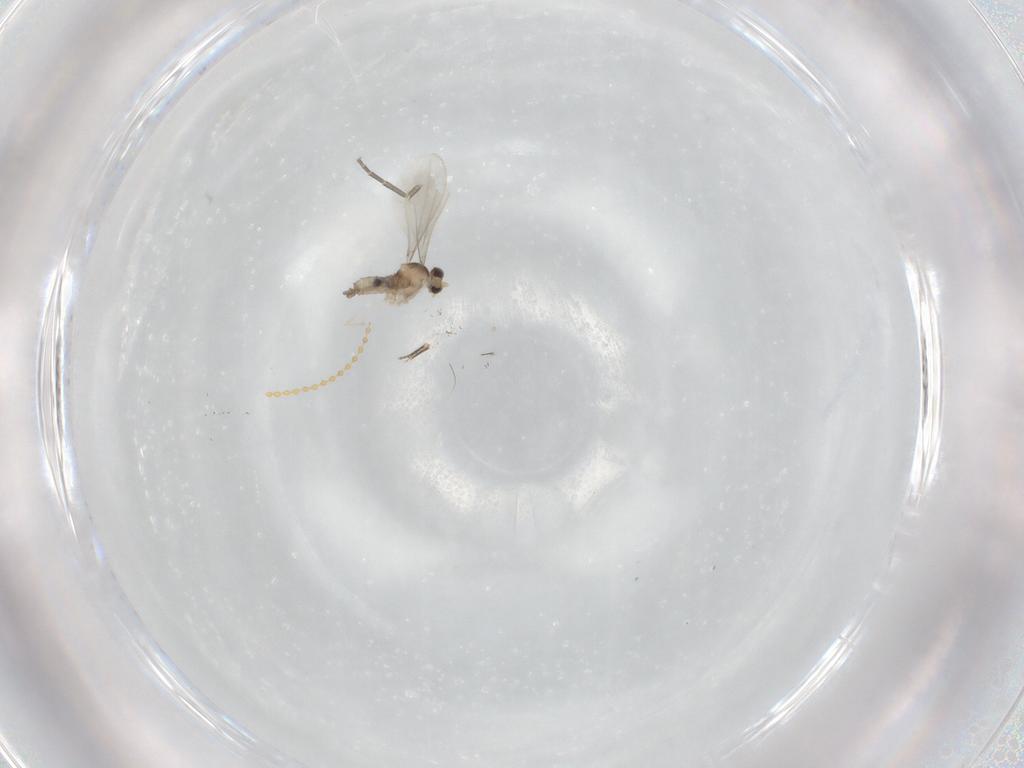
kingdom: Animalia
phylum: Arthropoda
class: Insecta
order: Diptera
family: Cecidomyiidae
